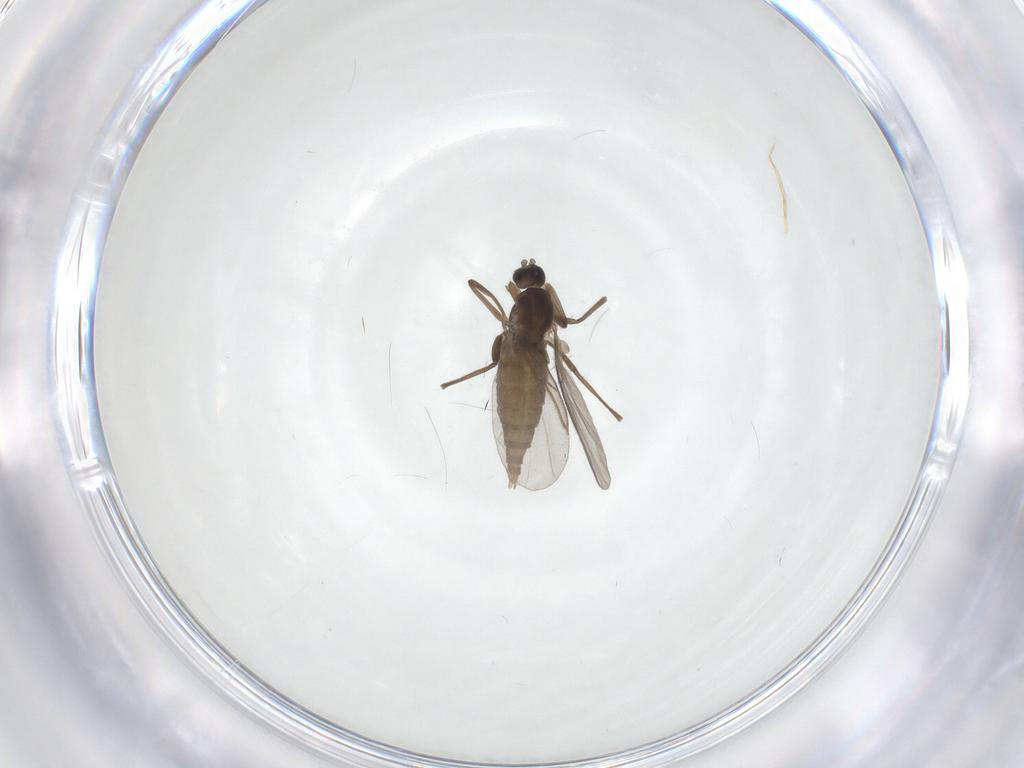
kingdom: Animalia
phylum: Arthropoda
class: Insecta
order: Diptera
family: Cecidomyiidae
